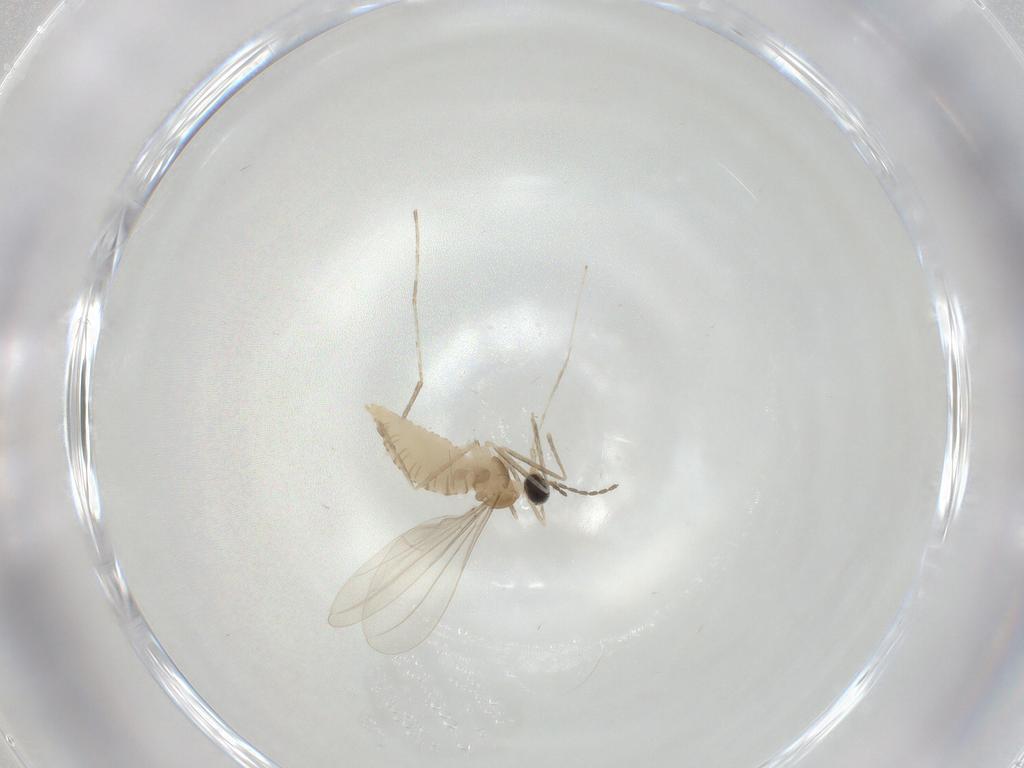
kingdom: Animalia
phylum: Arthropoda
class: Insecta
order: Diptera
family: Cecidomyiidae
